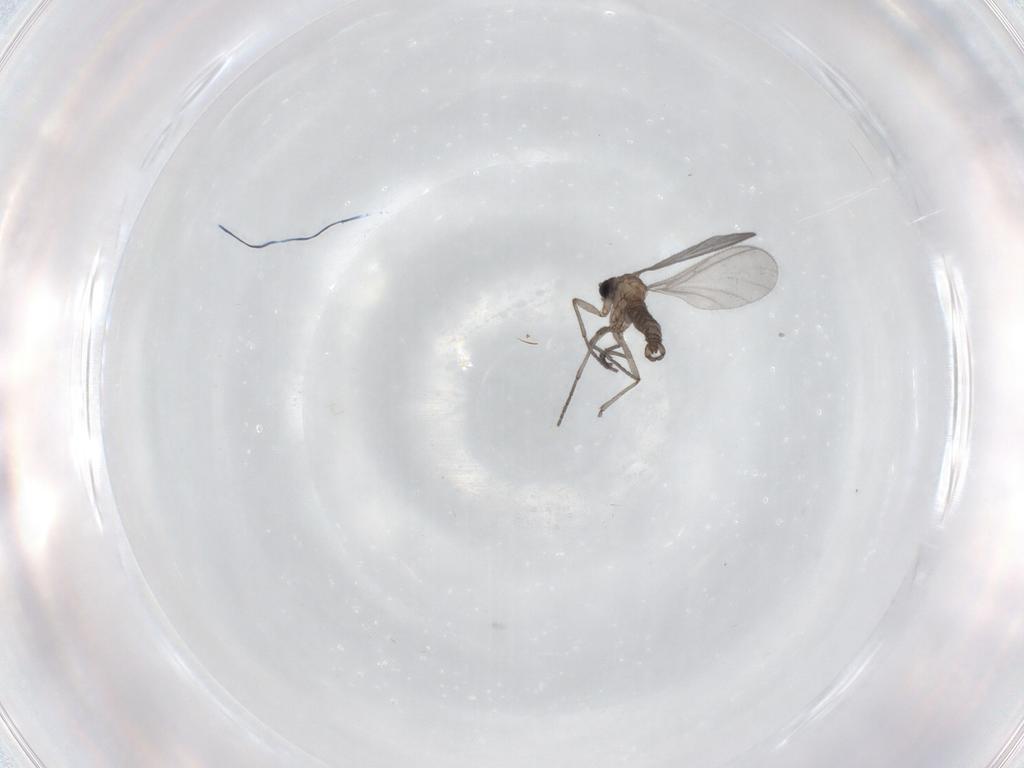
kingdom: Animalia
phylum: Arthropoda
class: Insecta
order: Diptera
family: Sciaridae
